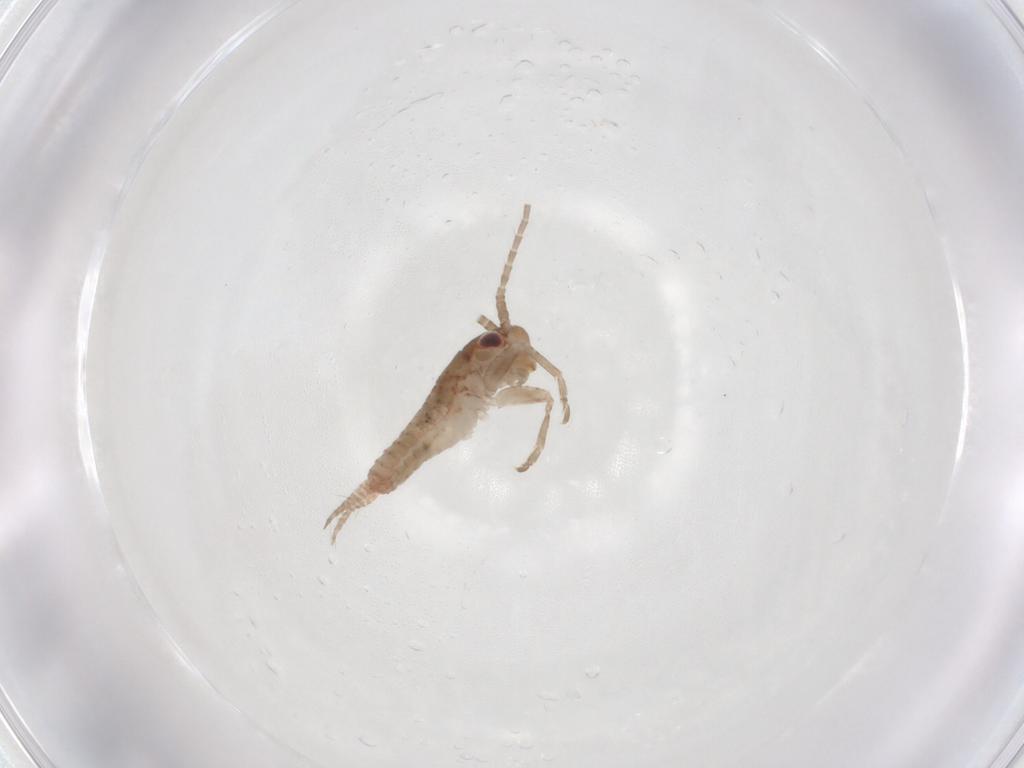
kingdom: Animalia
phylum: Arthropoda
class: Insecta
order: Orthoptera
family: Mogoplistidae
